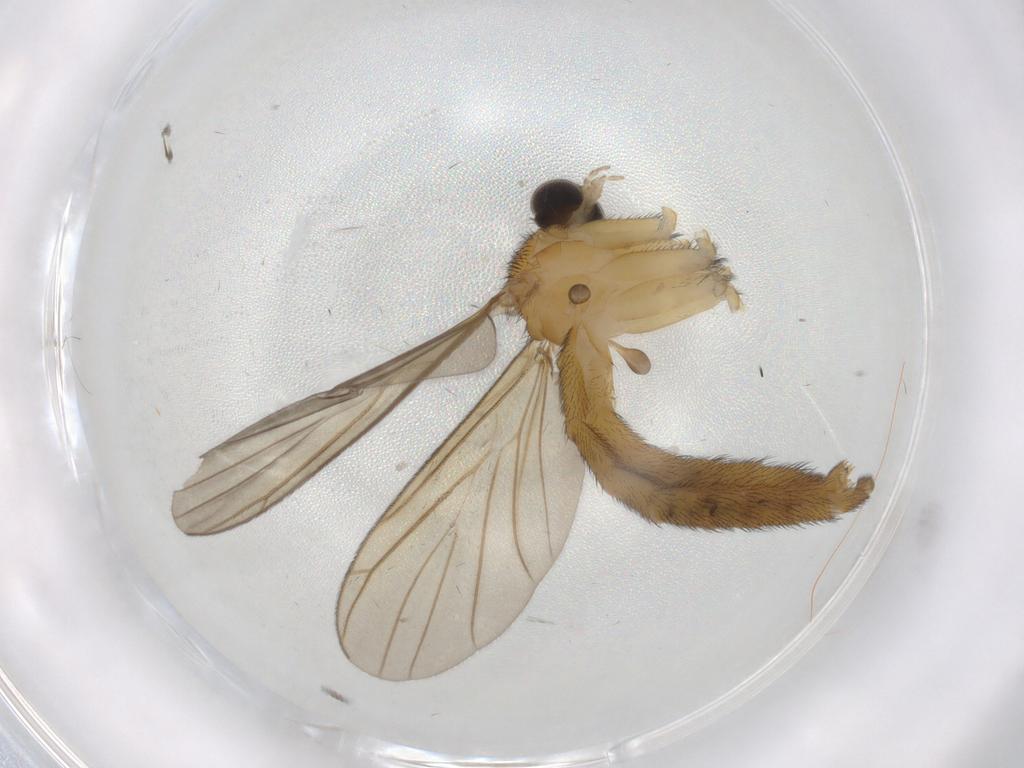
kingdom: Animalia
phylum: Arthropoda
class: Insecta
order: Diptera
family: Cecidomyiidae
